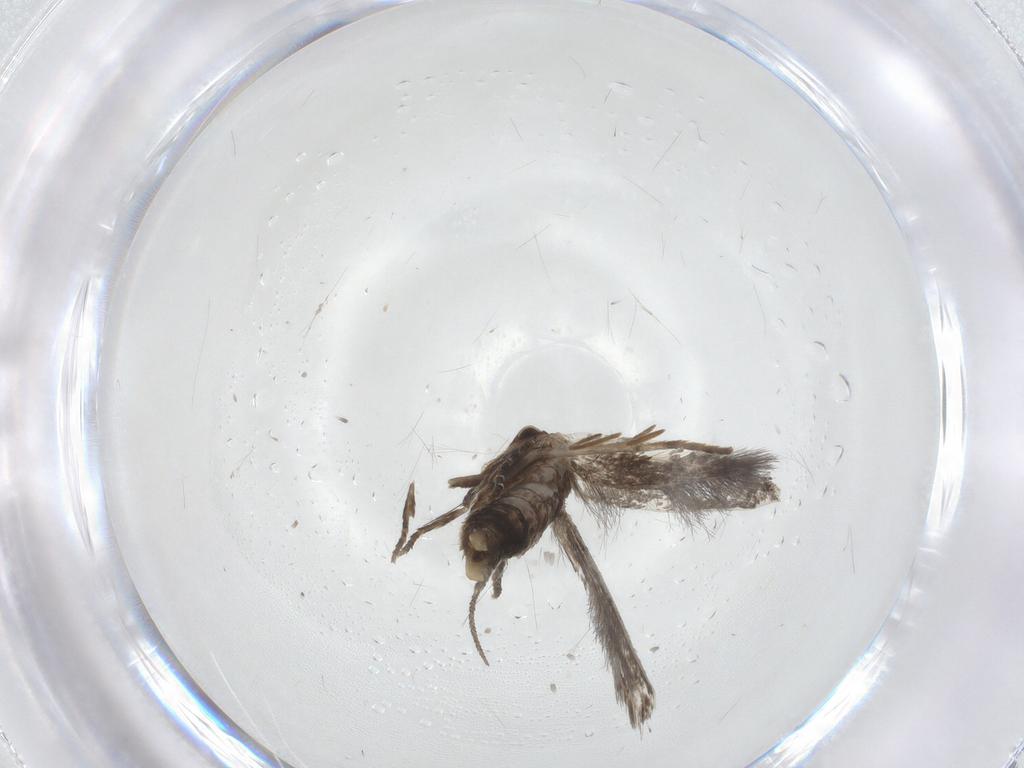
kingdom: Animalia
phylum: Arthropoda
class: Insecta
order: Lepidoptera
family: Elachistidae
